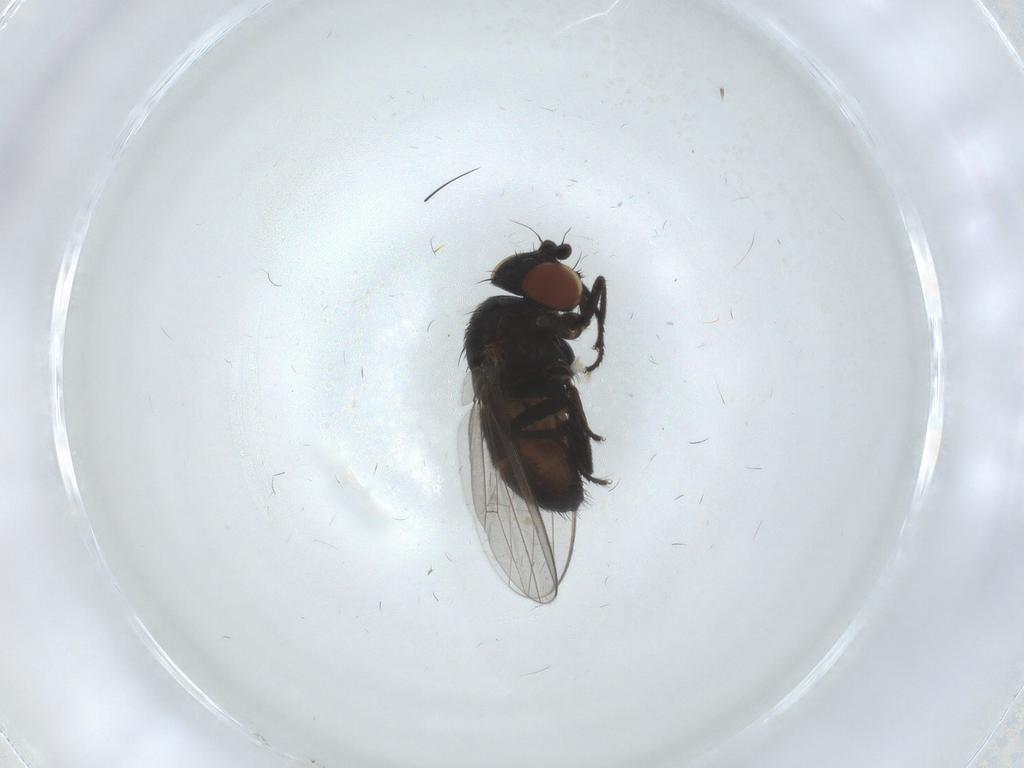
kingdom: Animalia
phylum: Arthropoda
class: Insecta
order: Diptera
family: Milichiidae
